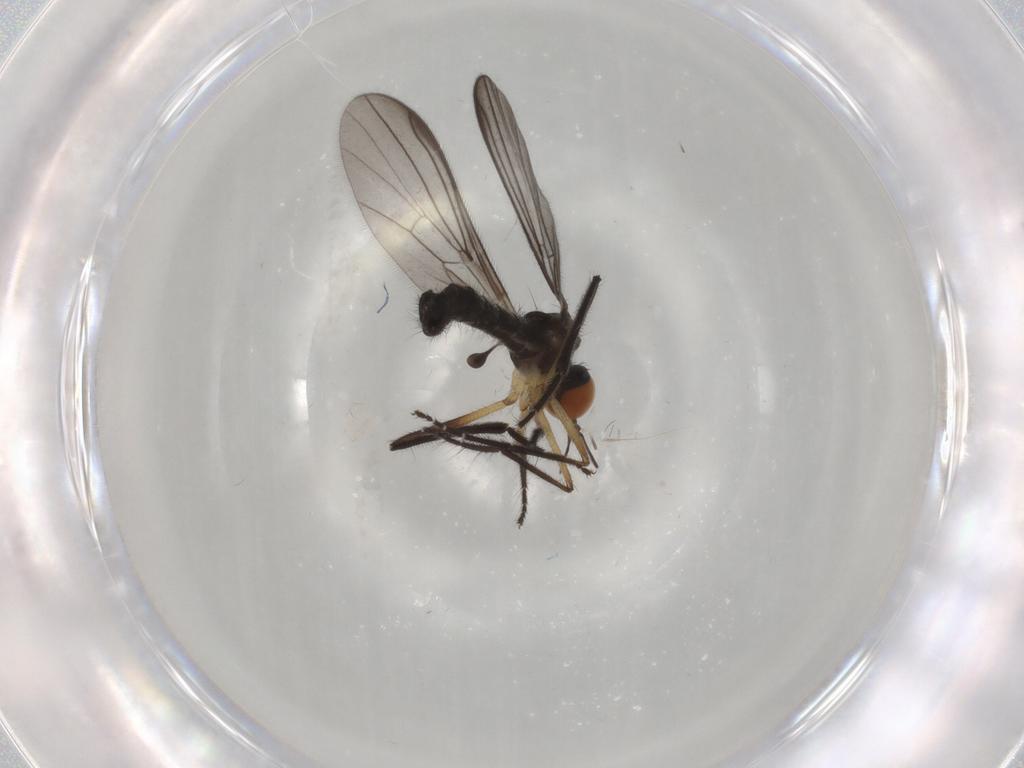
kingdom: Animalia
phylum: Arthropoda
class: Insecta
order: Diptera
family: Empididae
